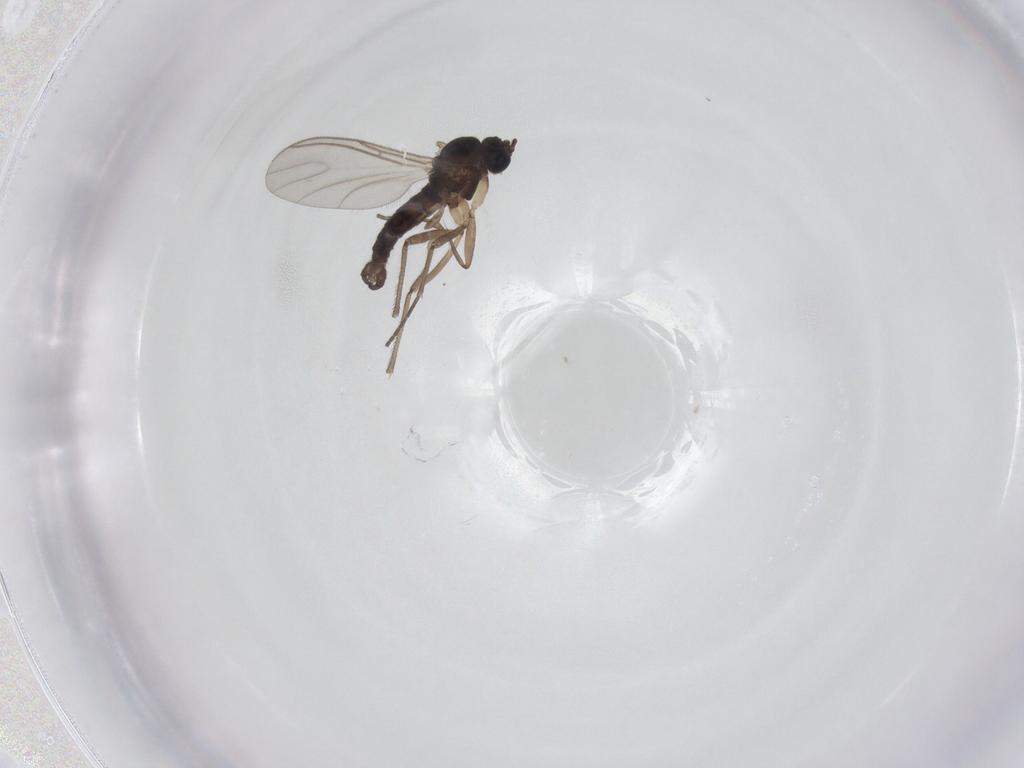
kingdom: Animalia
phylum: Arthropoda
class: Insecta
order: Diptera
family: Sciaridae
